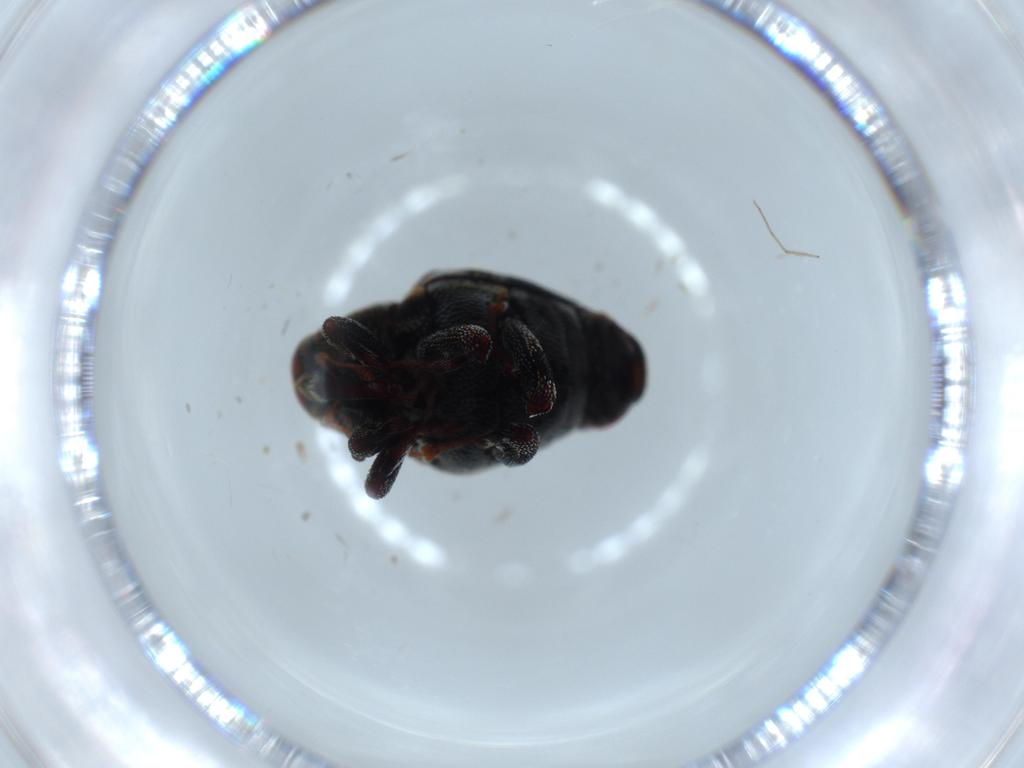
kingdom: Animalia
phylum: Arthropoda
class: Insecta
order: Coleoptera
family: Curculionidae
